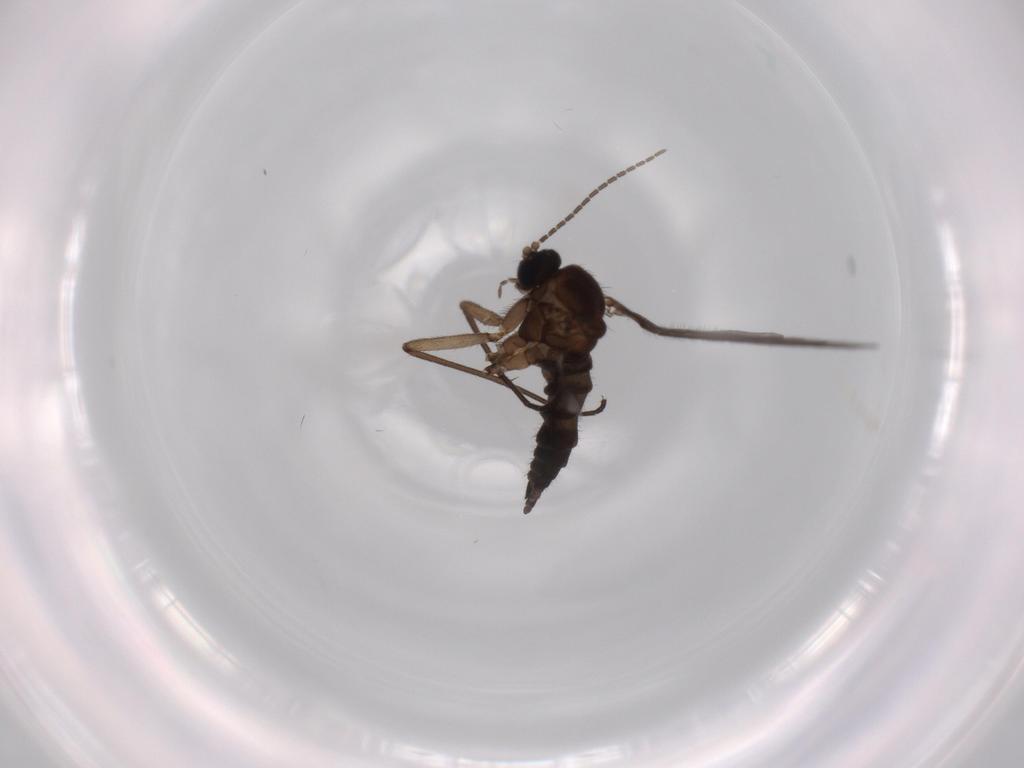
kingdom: Animalia
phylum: Arthropoda
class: Insecta
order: Diptera
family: Sciaridae
